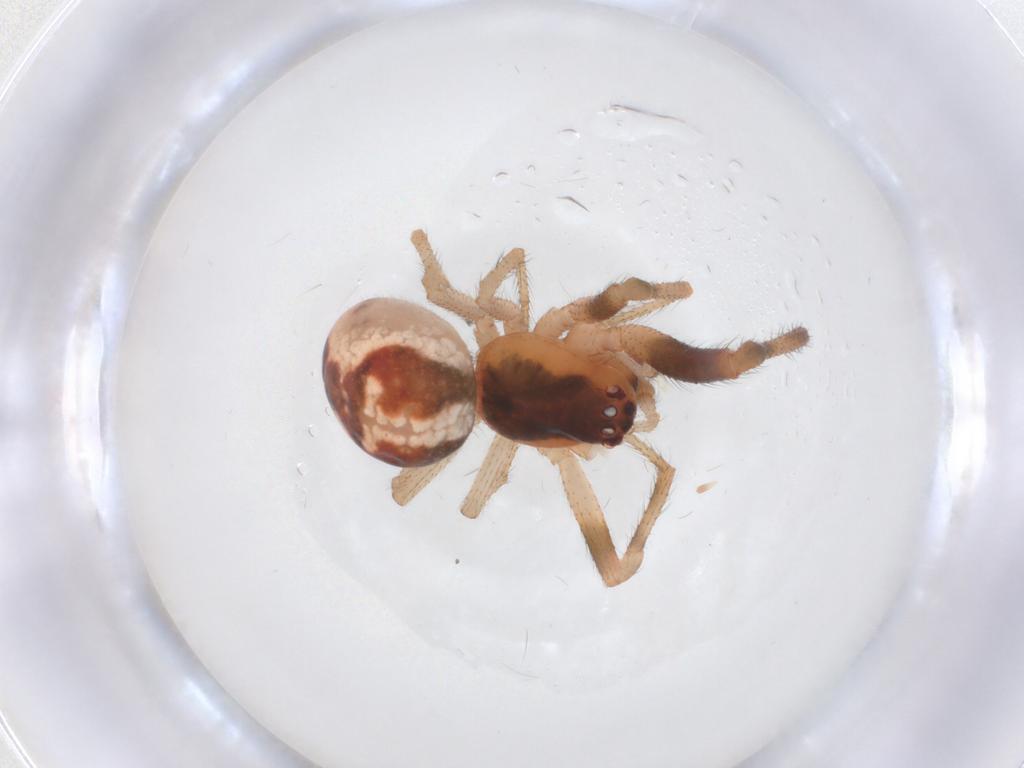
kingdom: Animalia
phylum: Arthropoda
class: Arachnida
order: Araneae
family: Theridiidae
